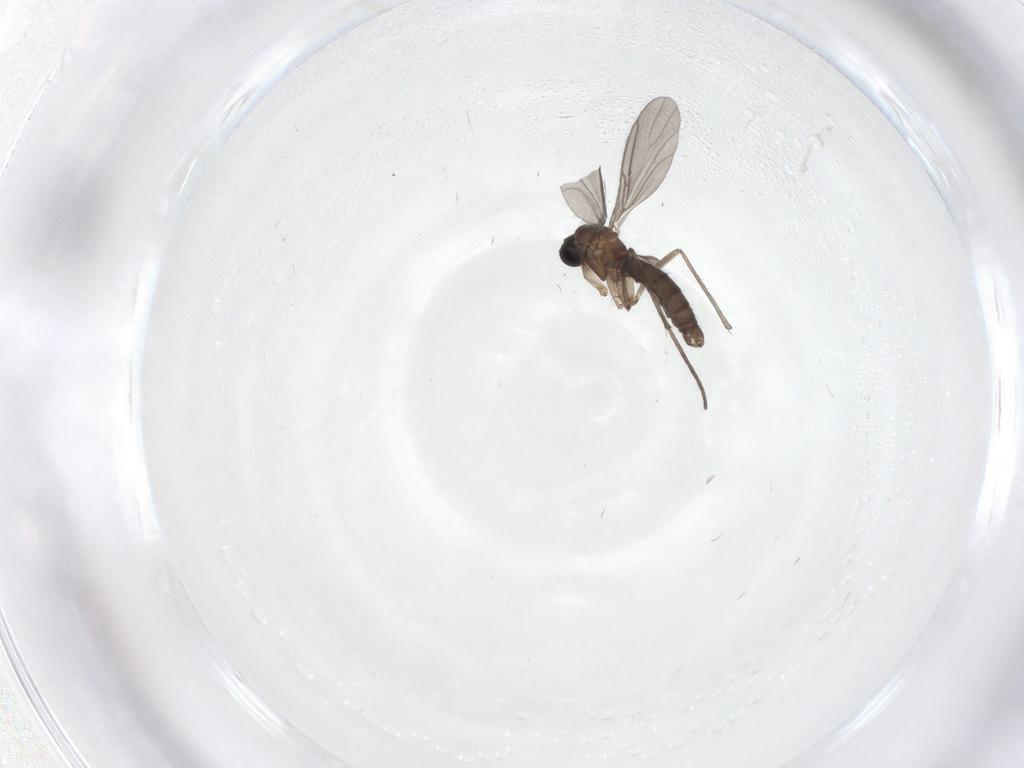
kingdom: Animalia
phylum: Arthropoda
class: Insecta
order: Diptera
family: Sciaridae
